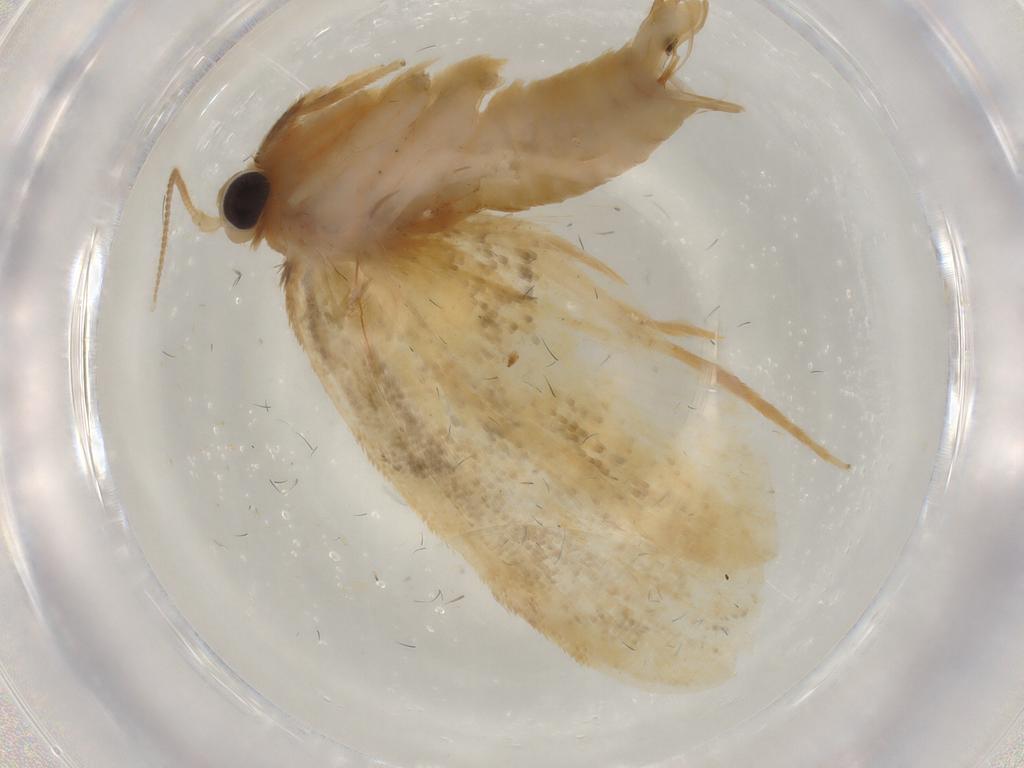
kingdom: Animalia
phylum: Arthropoda
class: Insecta
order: Lepidoptera
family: Psychidae
